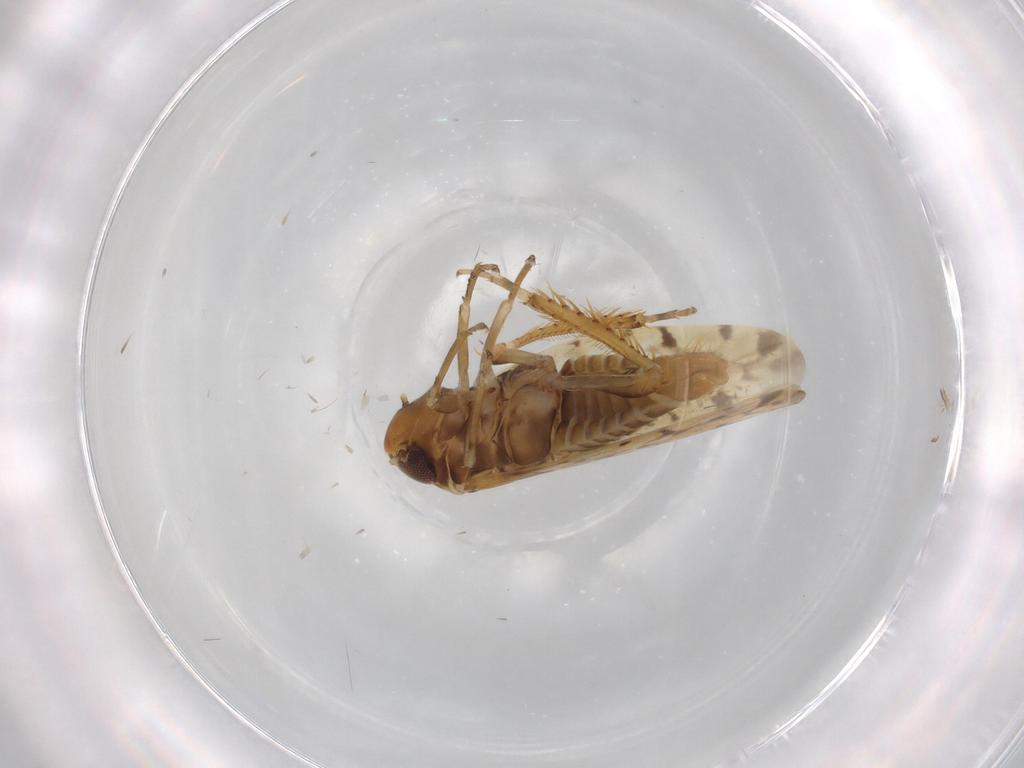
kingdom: Animalia
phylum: Arthropoda
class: Insecta
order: Hemiptera
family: Cicadellidae
